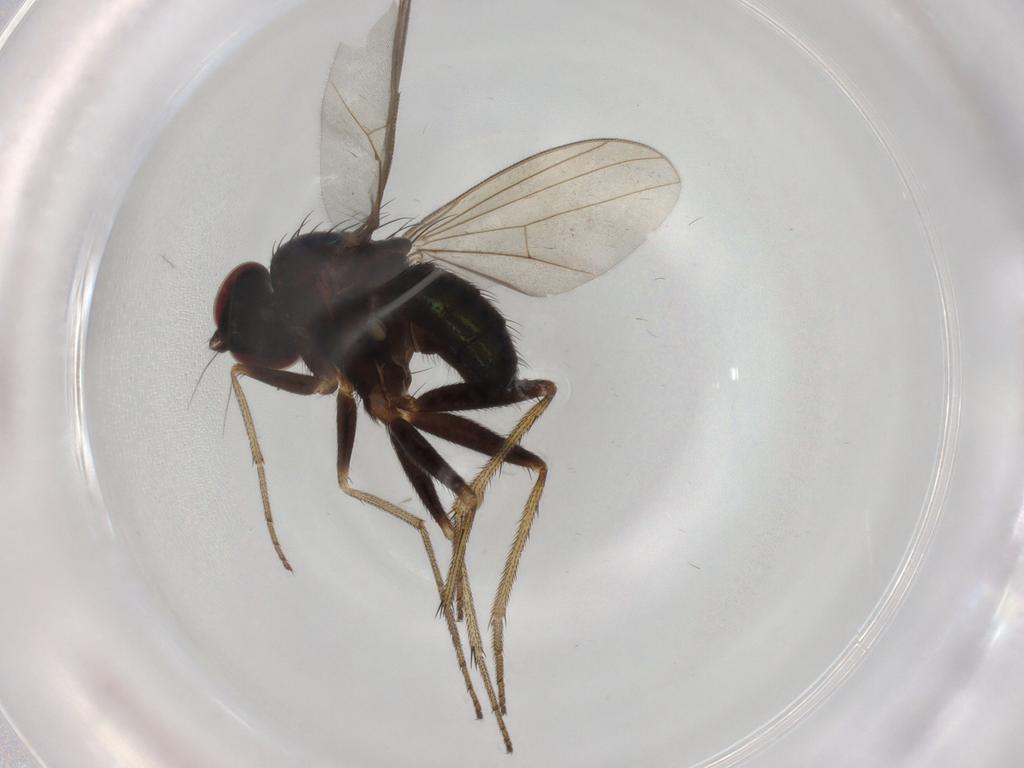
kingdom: Animalia
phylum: Arthropoda
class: Insecta
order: Diptera
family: Dolichopodidae
